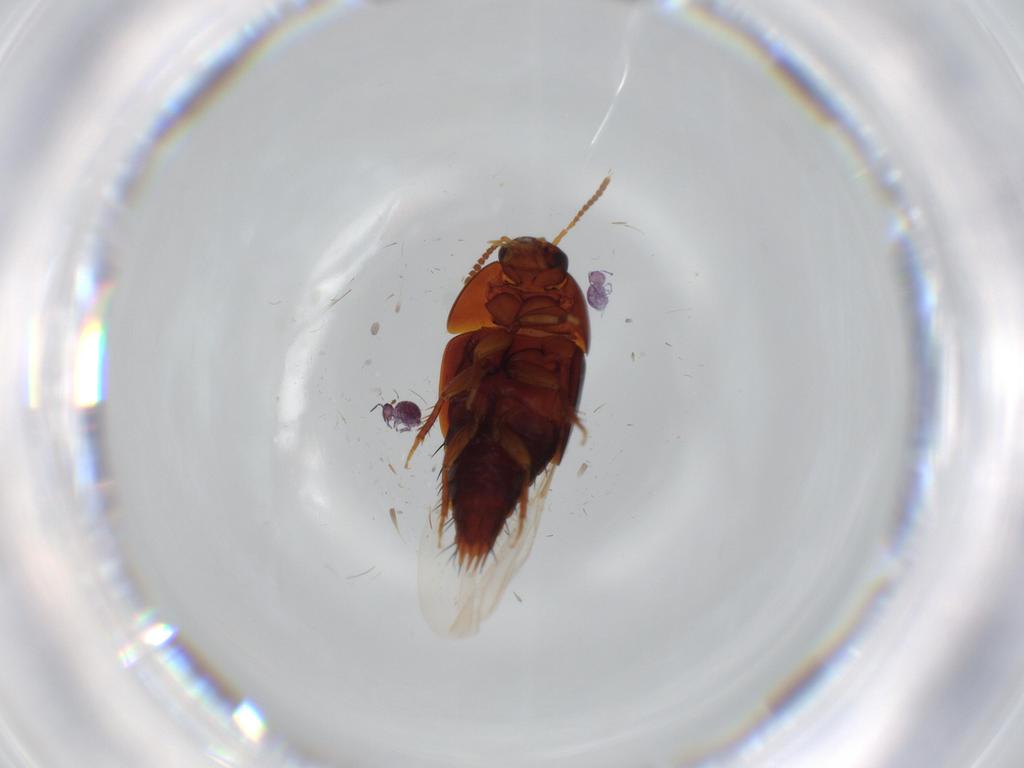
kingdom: Animalia
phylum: Arthropoda
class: Insecta
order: Coleoptera
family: Staphylinidae
